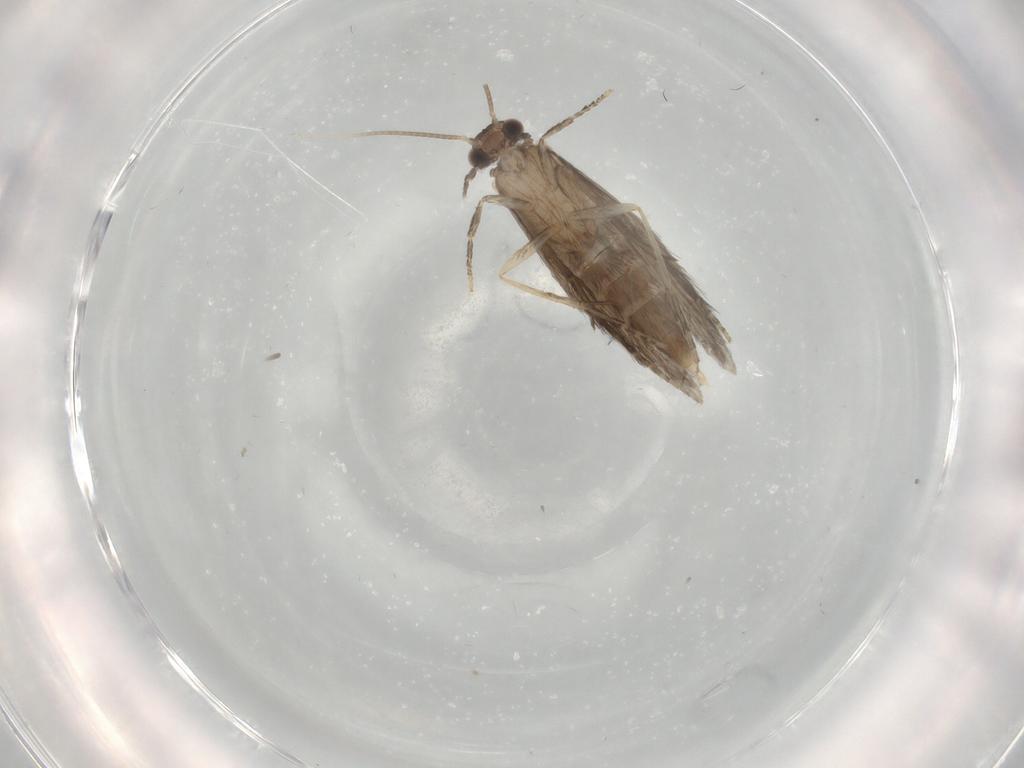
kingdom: Animalia
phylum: Arthropoda
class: Insecta
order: Trichoptera
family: Hydroptilidae
